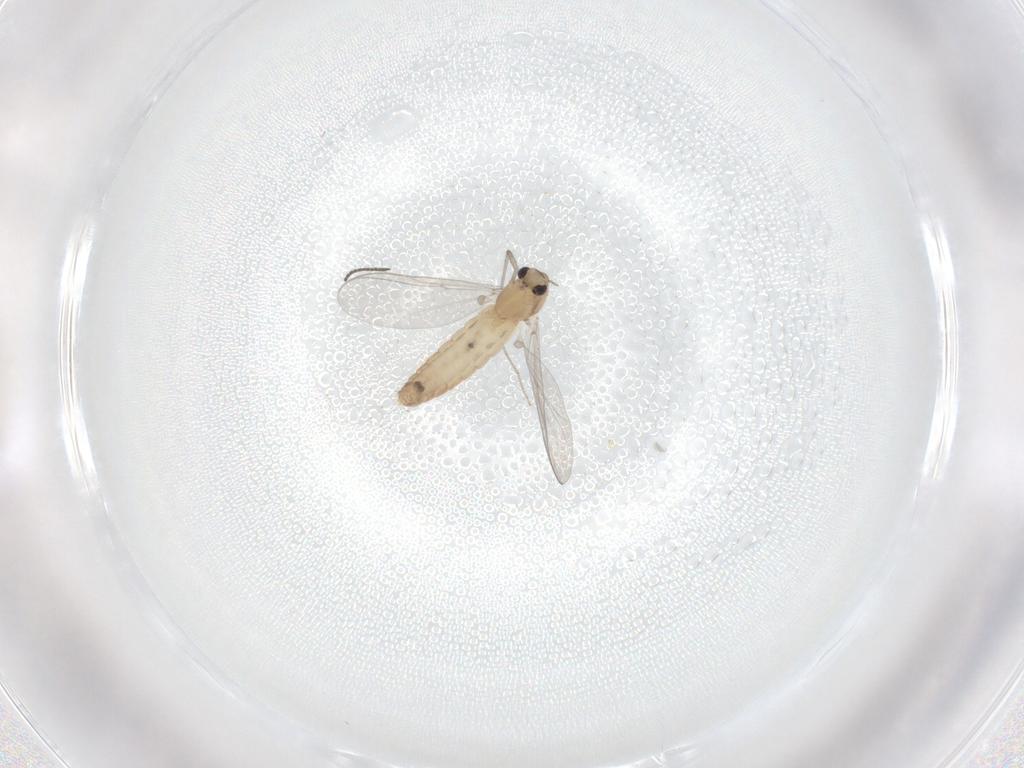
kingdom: Animalia
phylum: Arthropoda
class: Insecta
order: Diptera
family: Chironomidae
